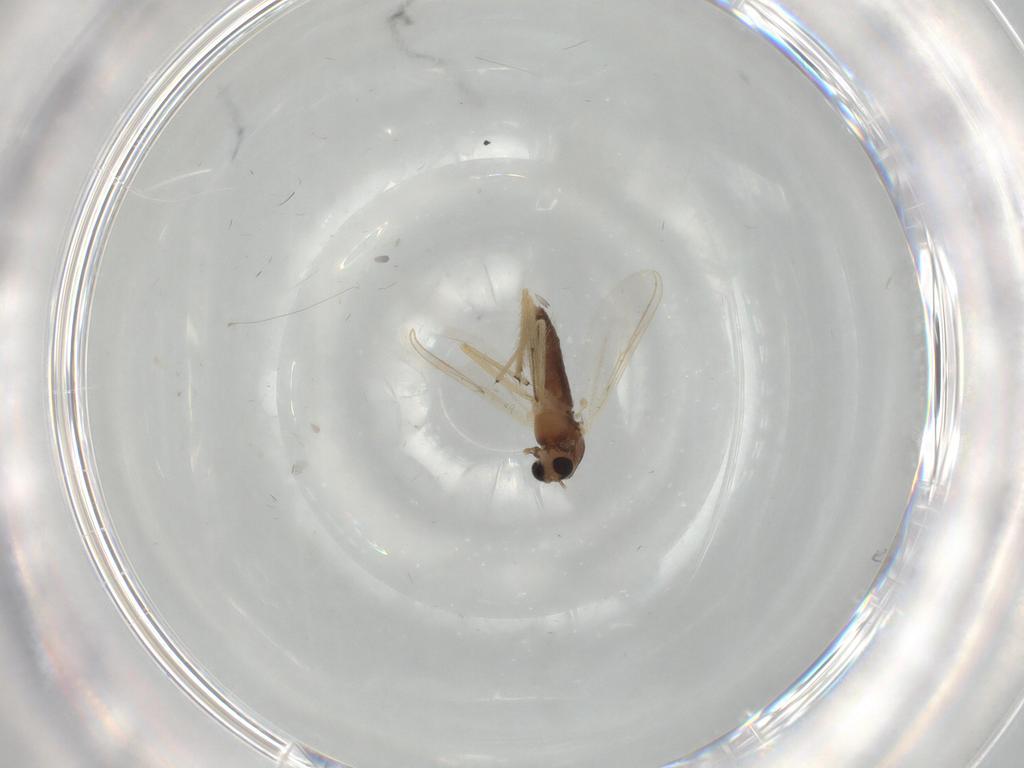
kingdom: Animalia
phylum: Arthropoda
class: Insecta
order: Diptera
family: Chironomidae
